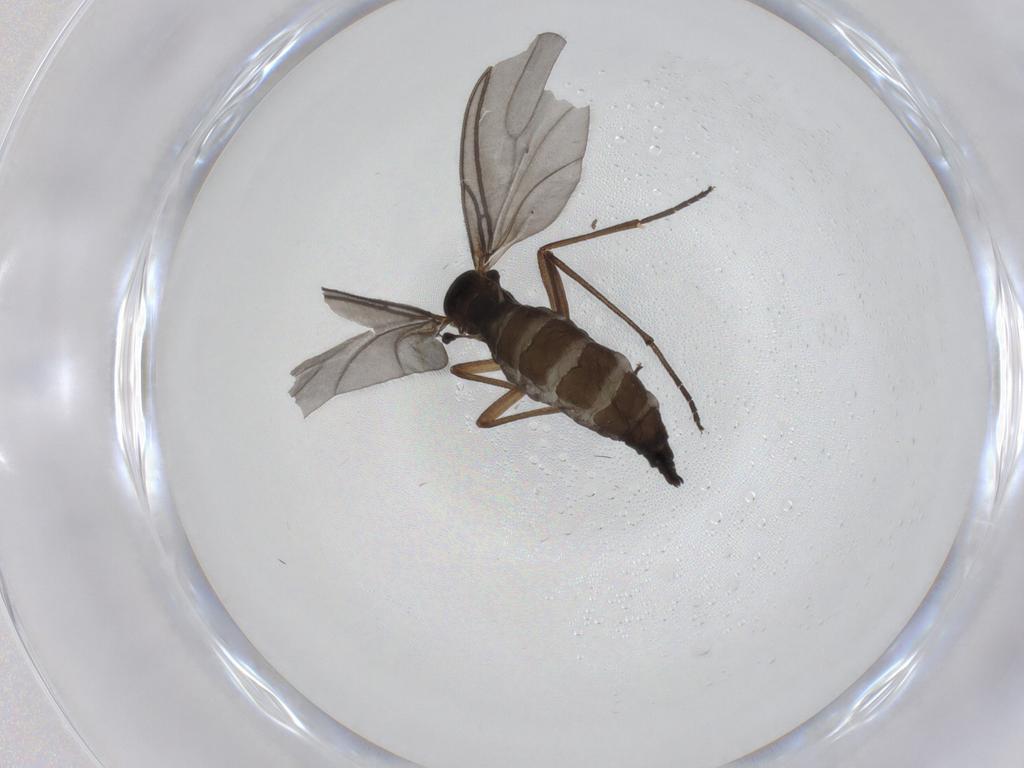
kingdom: Animalia
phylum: Arthropoda
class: Insecta
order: Diptera
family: Sciaridae
